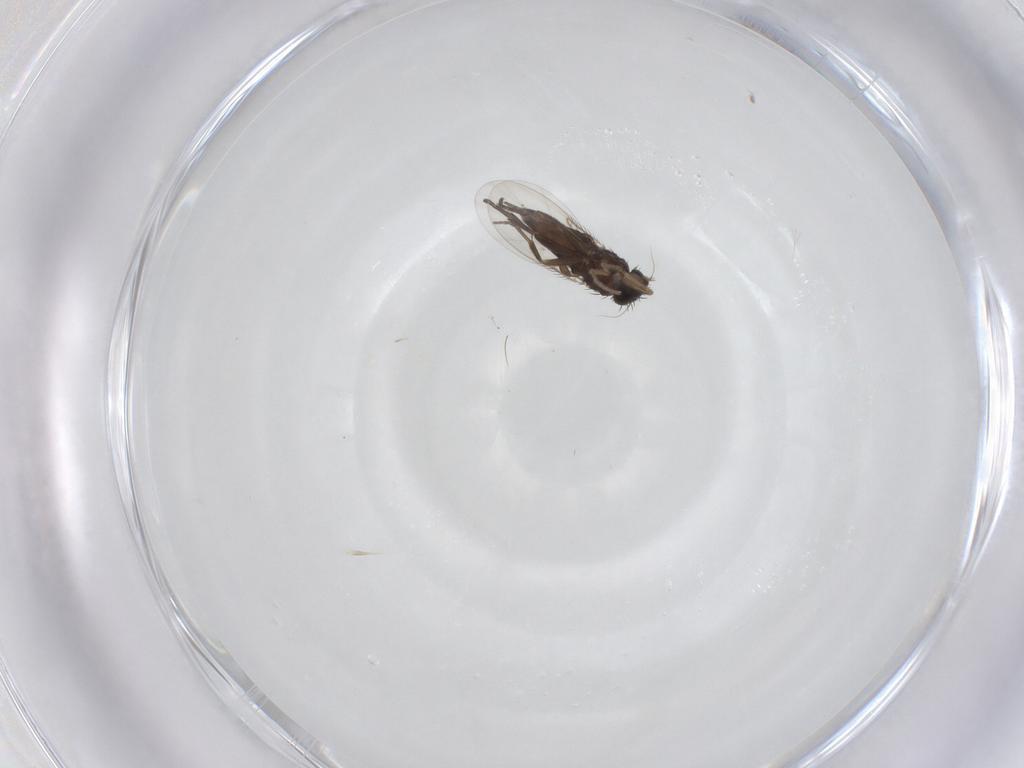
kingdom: Animalia
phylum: Arthropoda
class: Insecta
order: Diptera
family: Phoridae
